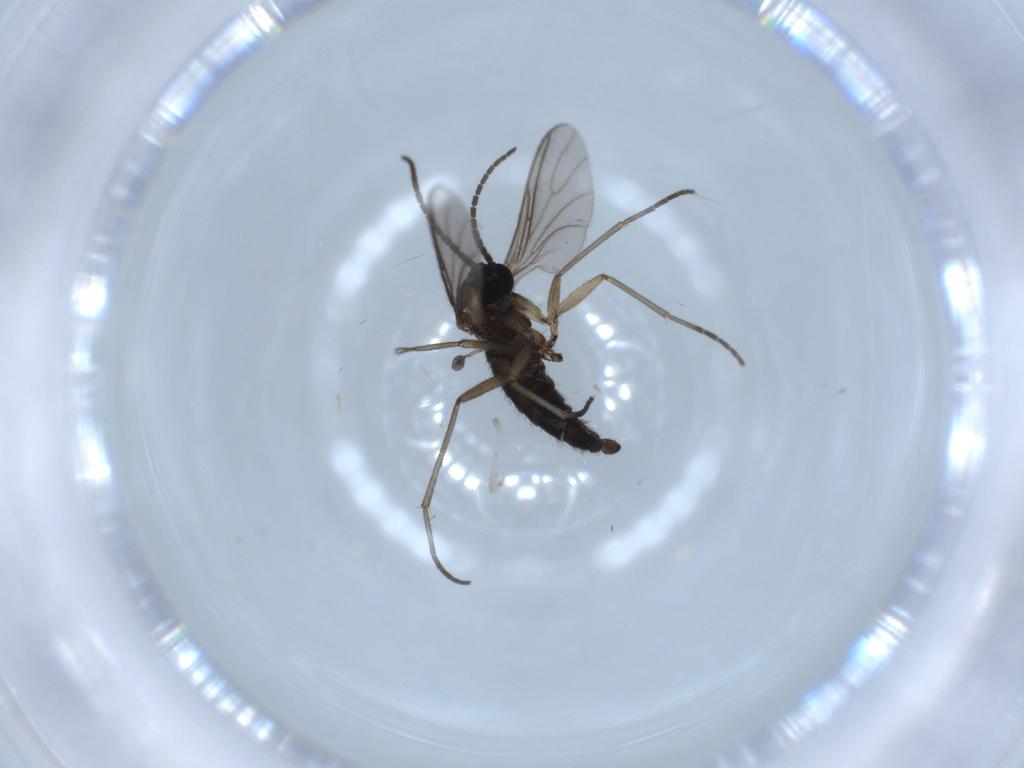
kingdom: Animalia
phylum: Arthropoda
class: Insecta
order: Diptera
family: Sciaridae
